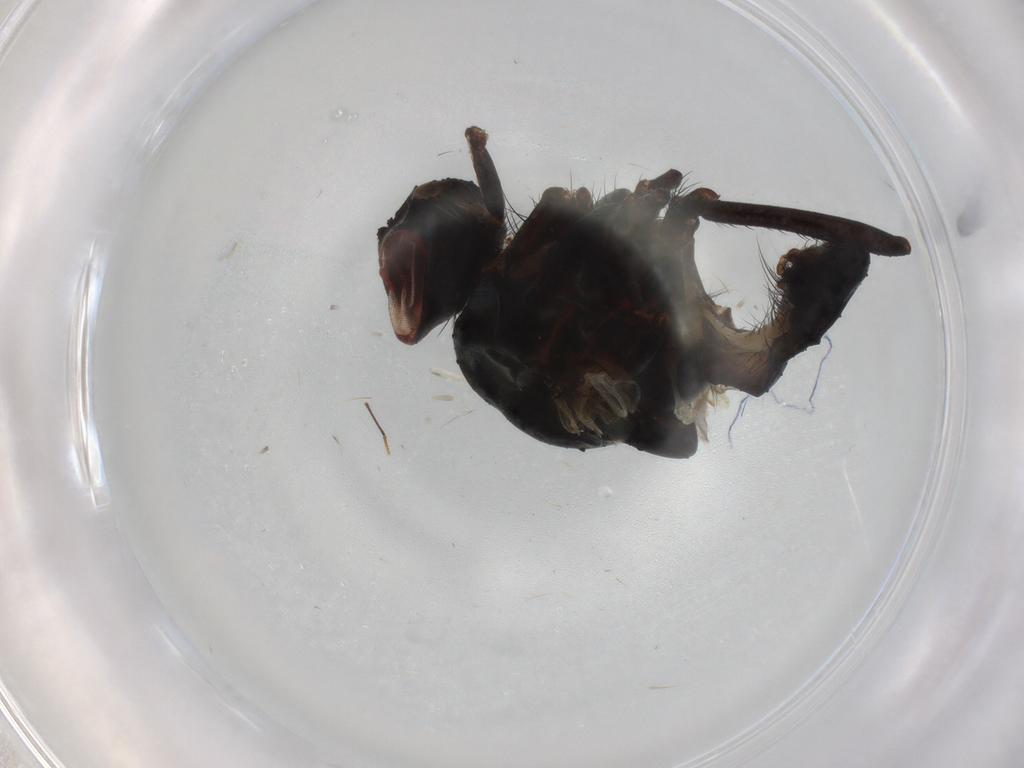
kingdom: Animalia
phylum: Arthropoda
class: Insecta
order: Diptera
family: Anthomyiidae
